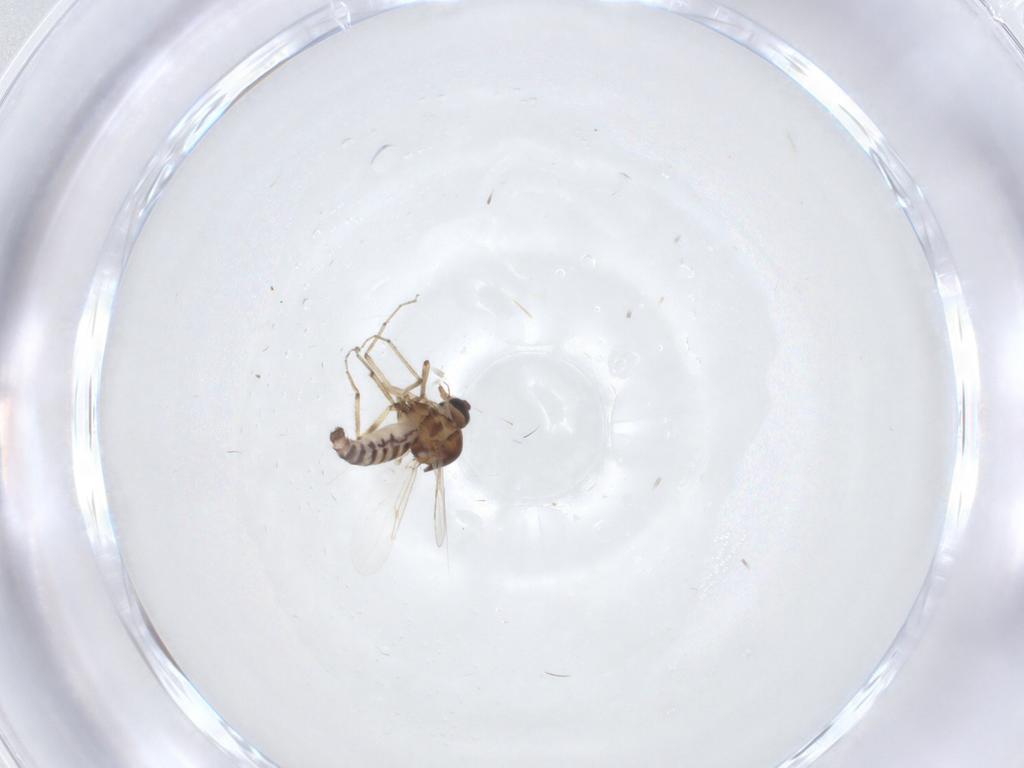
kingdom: Animalia
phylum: Arthropoda
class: Insecta
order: Diptera
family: Ceratopogonidae
